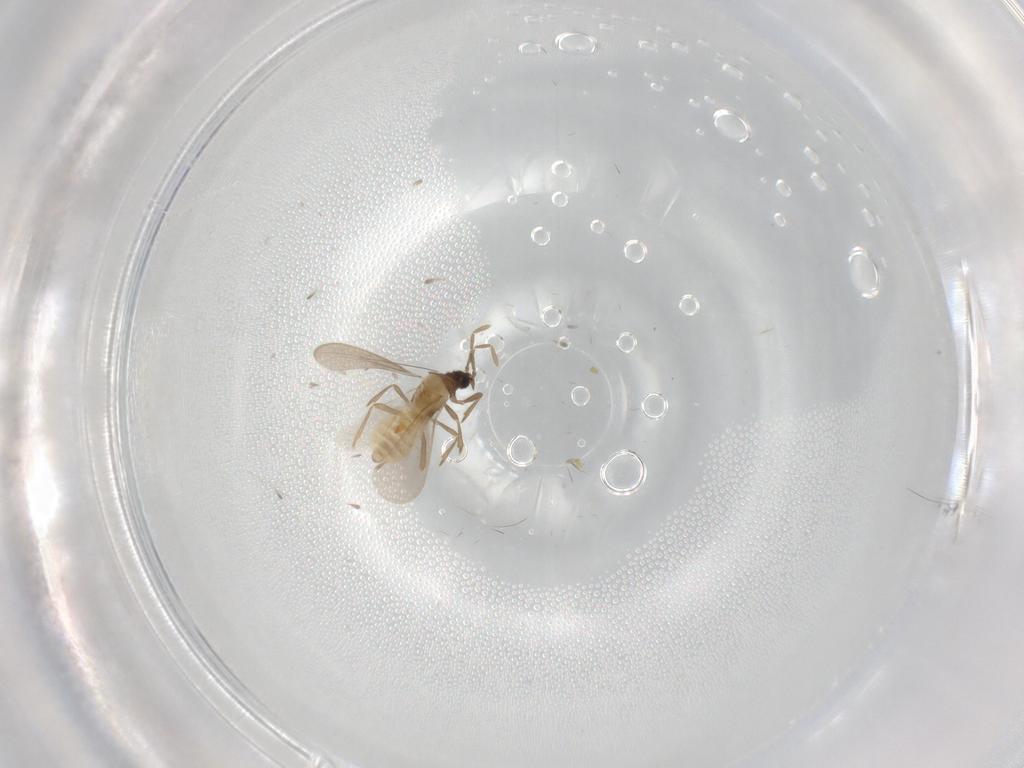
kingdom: Animalia
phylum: Arthropoda
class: Insecta
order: Diptera
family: Chironomidae
